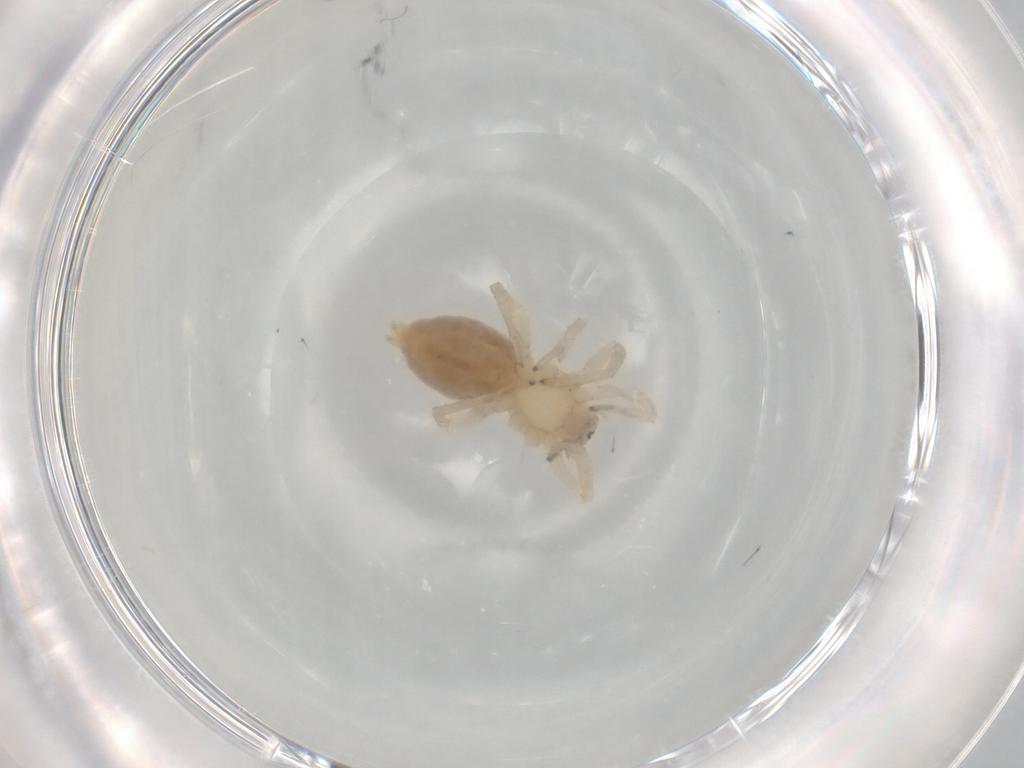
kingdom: Animalia
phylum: Arthropoda
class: Arachnida
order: Araneae
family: Clubionidae
